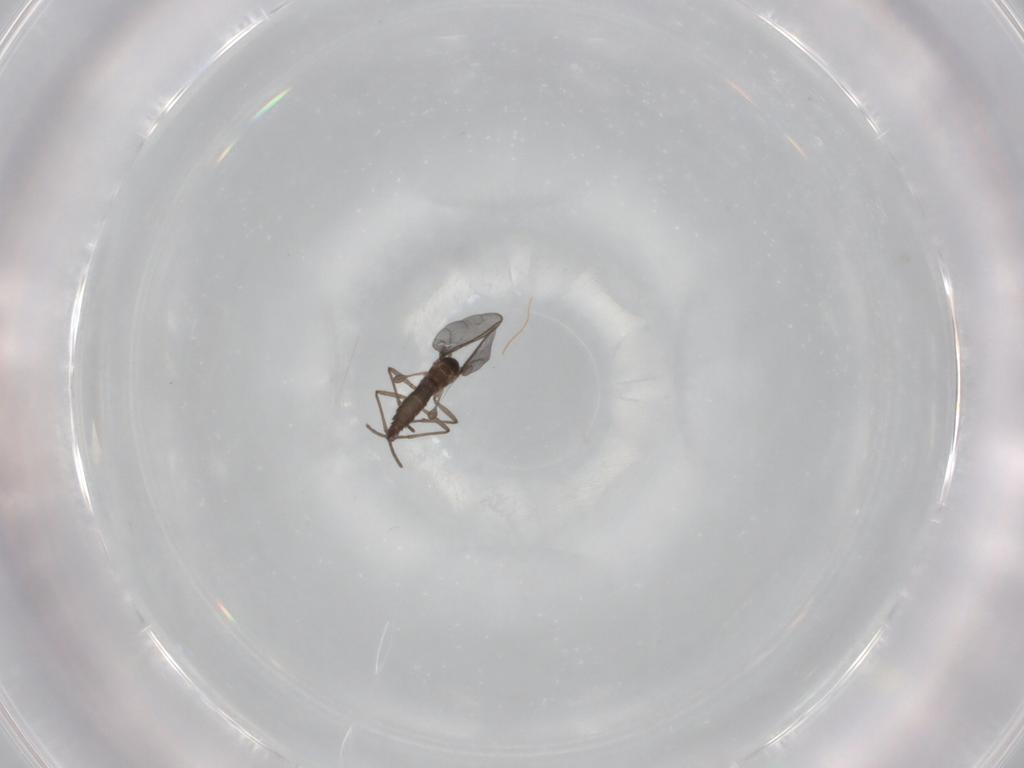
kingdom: Animalia
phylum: Arthropoda
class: Insecta
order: Diptera
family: Sciaridae
